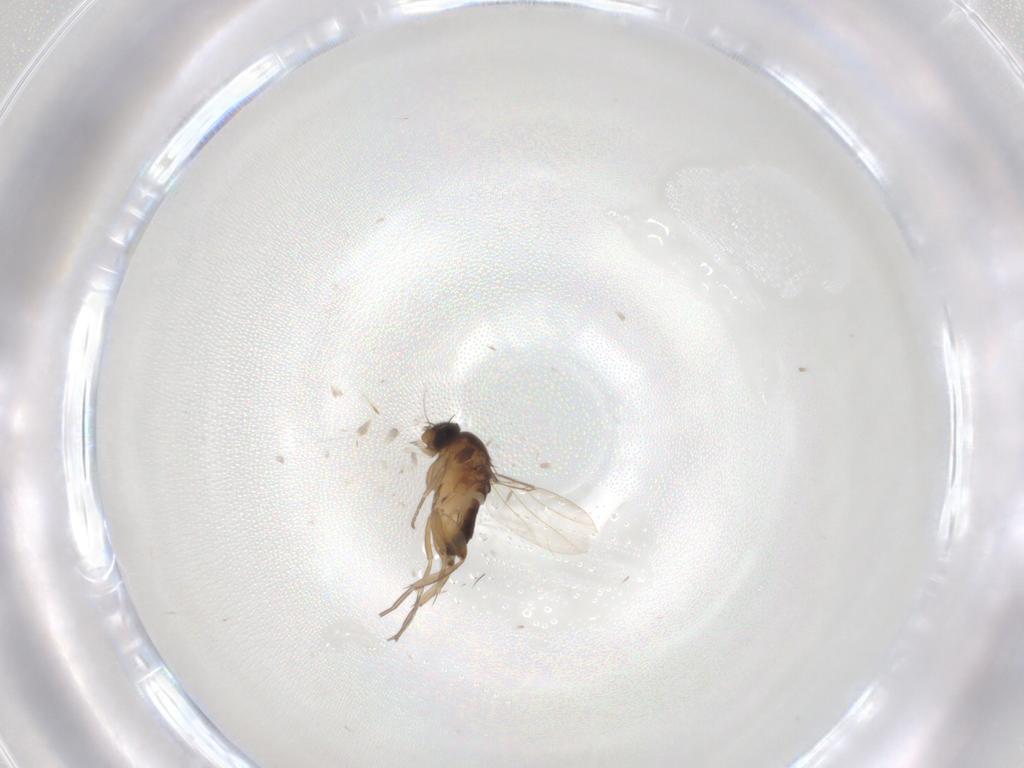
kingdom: Animalia
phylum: Arthropoda
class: Insecta
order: Diptera
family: Phoridae
